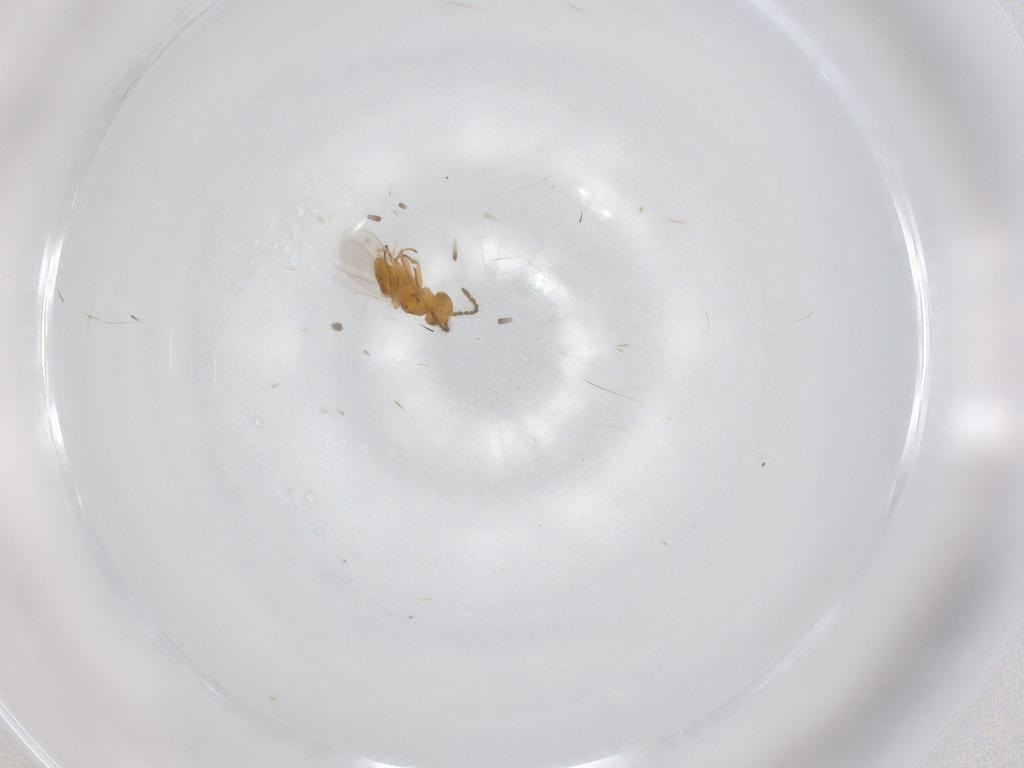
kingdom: Animalia
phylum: Arthropoda
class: Insecta
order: Hymenoptera
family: Encyrtidae
